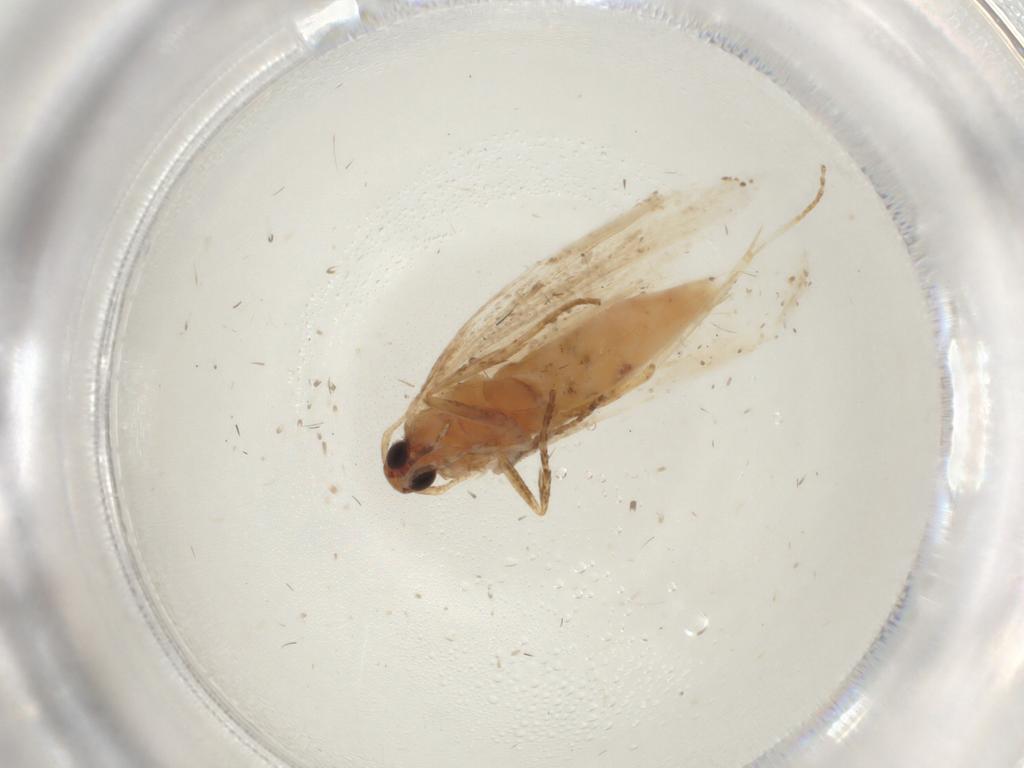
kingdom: Animalia
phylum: Arthropoda
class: Insecta
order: Lepidoptera
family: Gelechiidae
